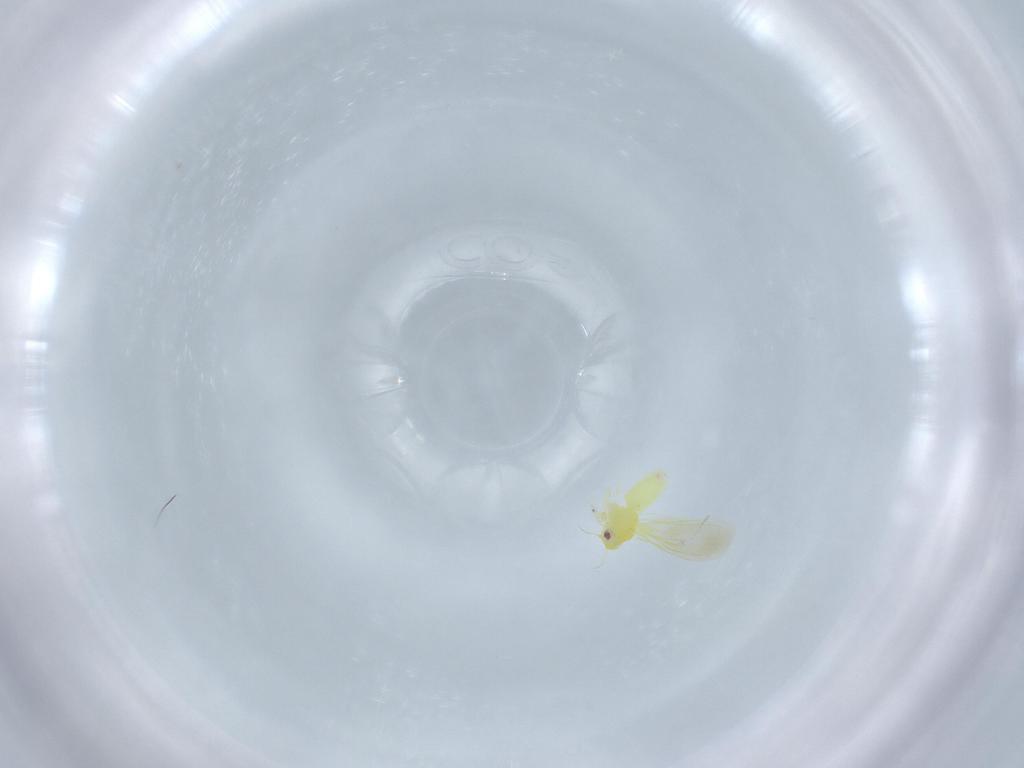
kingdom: Animalia
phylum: Arthropoda
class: Insecta
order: Hemiptera
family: Aleyrodidae
